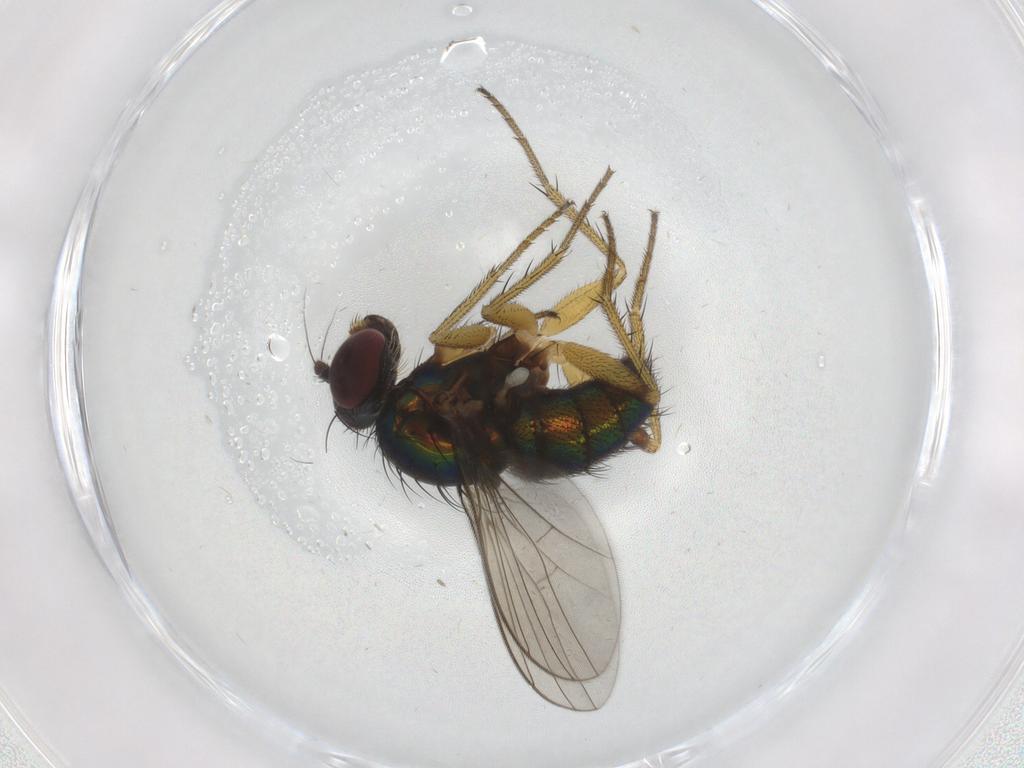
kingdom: Animalia
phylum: Arthropoda
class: Insecta
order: Diptera
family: Dolichopodidae
